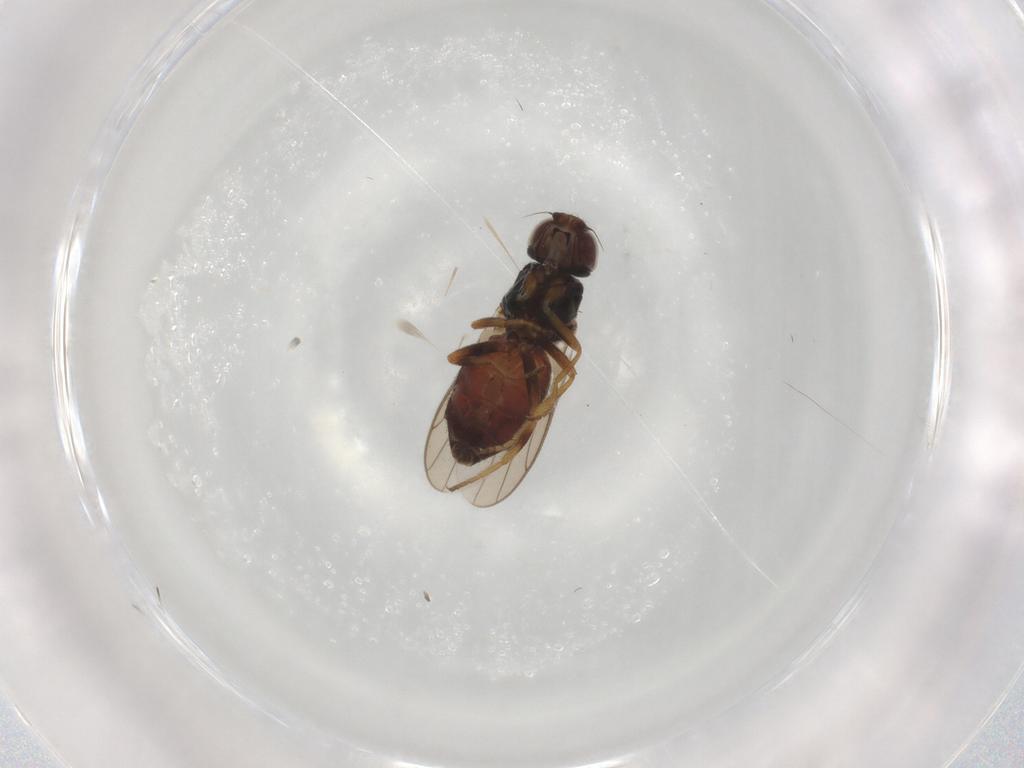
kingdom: Animalia
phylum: Arthropoda
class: Insecta
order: Diptera
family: Chloropidae
